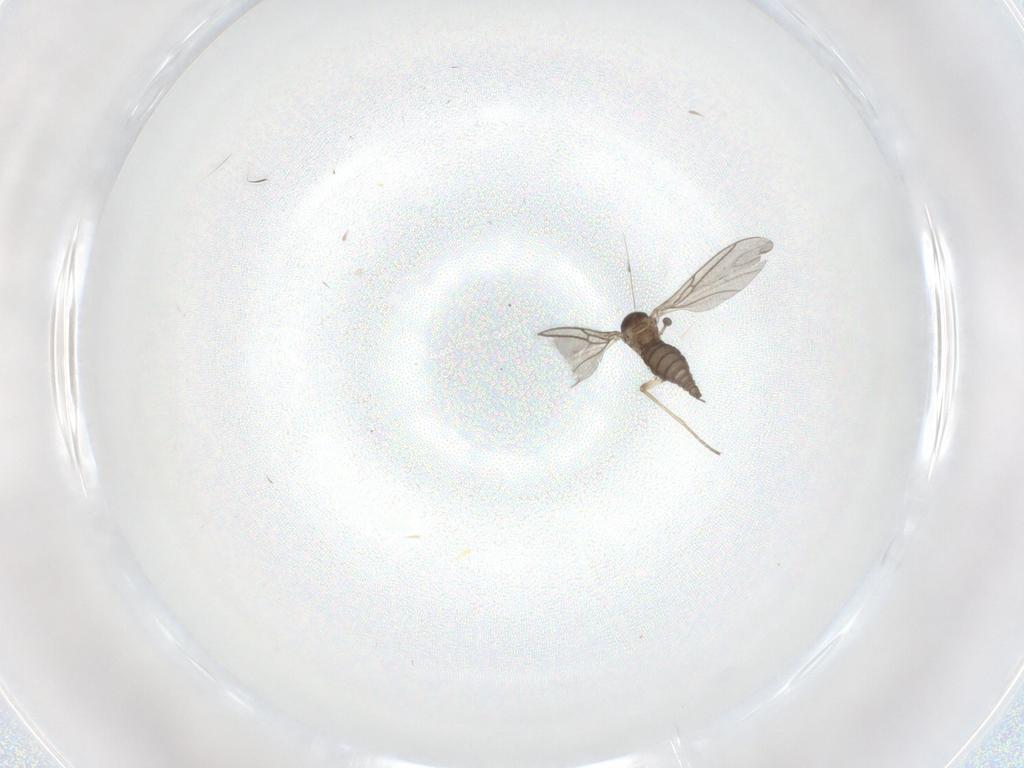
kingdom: Animalia
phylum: Arthropoda
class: Insecta
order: Diptera
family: Sciaridae
